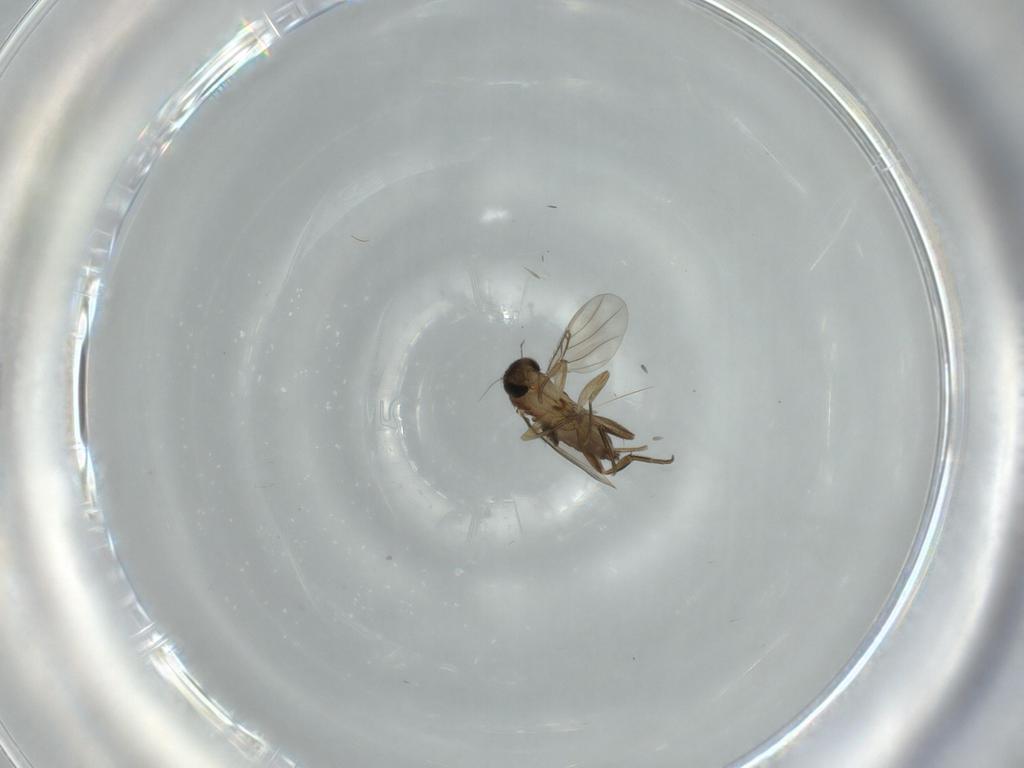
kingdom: Animalia
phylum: Arthropoda
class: Insecta
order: Diptera
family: Phoridae
